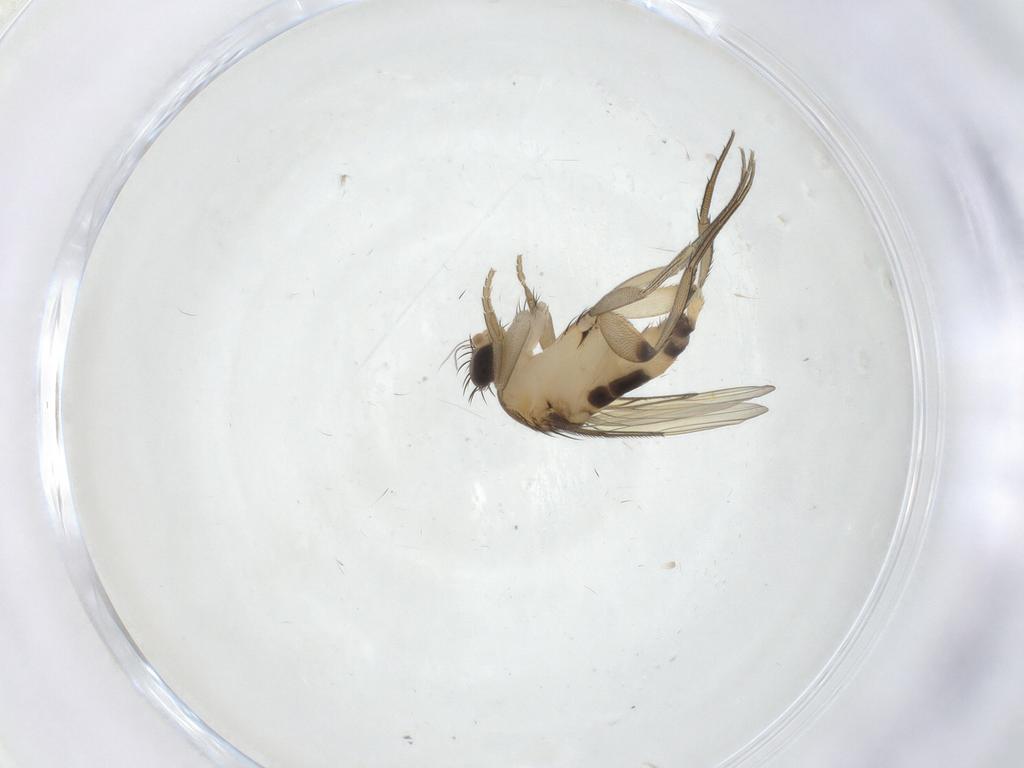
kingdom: Animalia
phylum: Arthropoda
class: Insecta
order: Diptera
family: Phoridae
